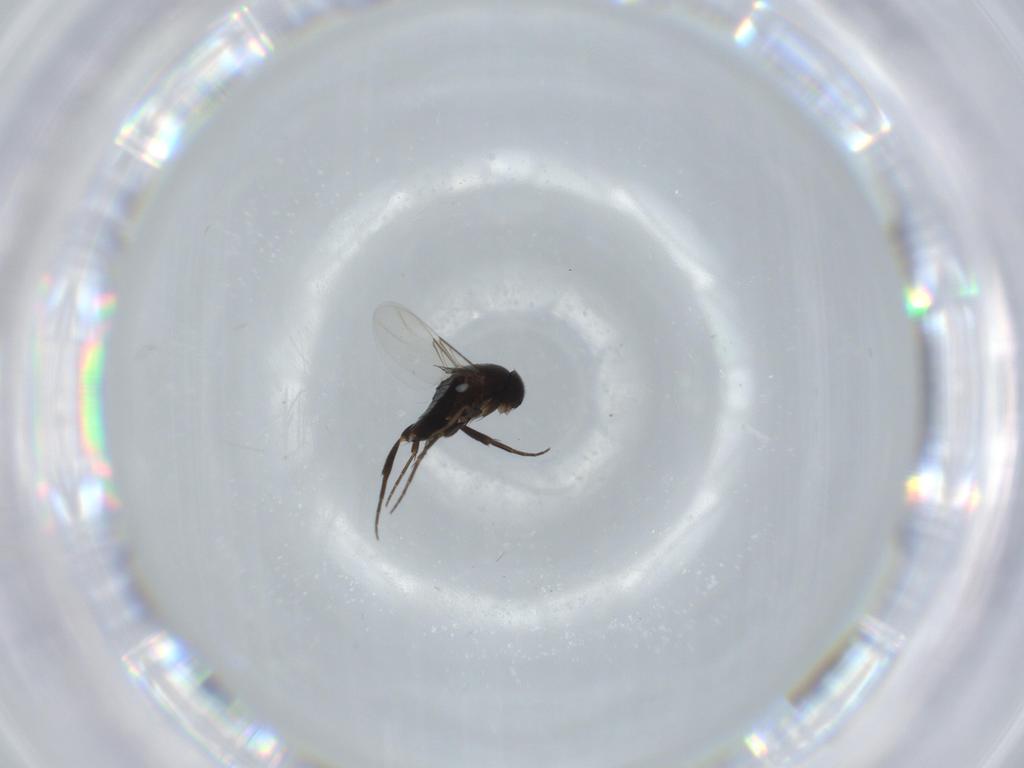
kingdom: Animalia
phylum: Arthropoda
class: Insecta
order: Diptera
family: Phoridae
